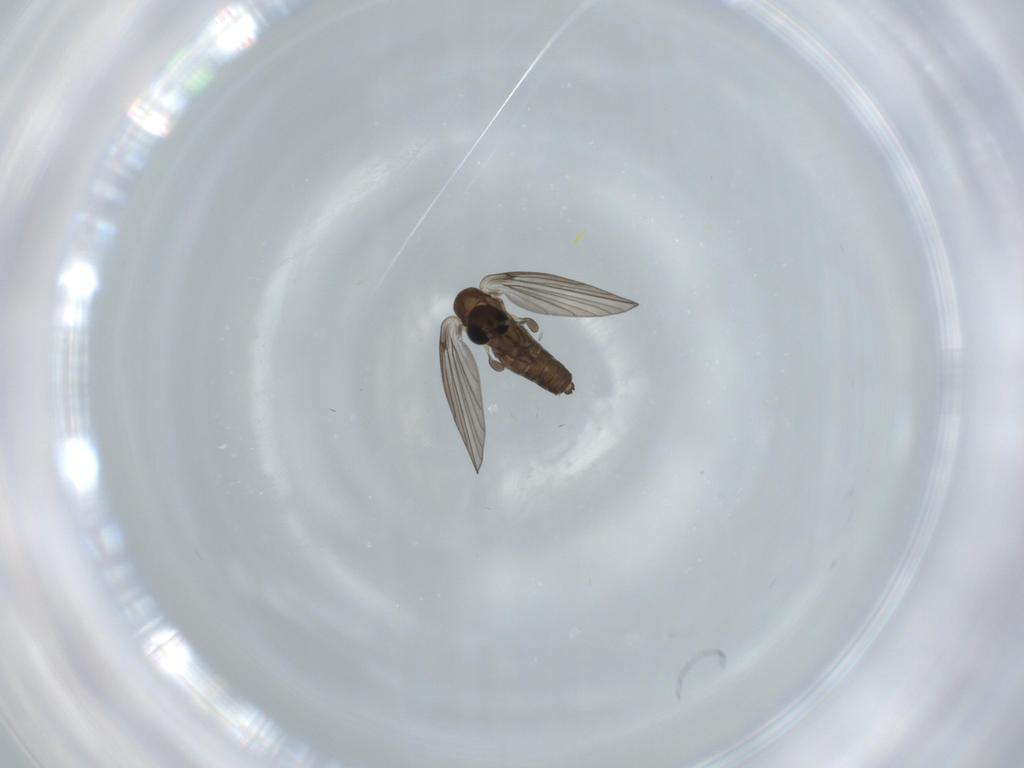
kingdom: Animalia
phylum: Arthropoda
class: Insecta
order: Diptera
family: Psychodidae
